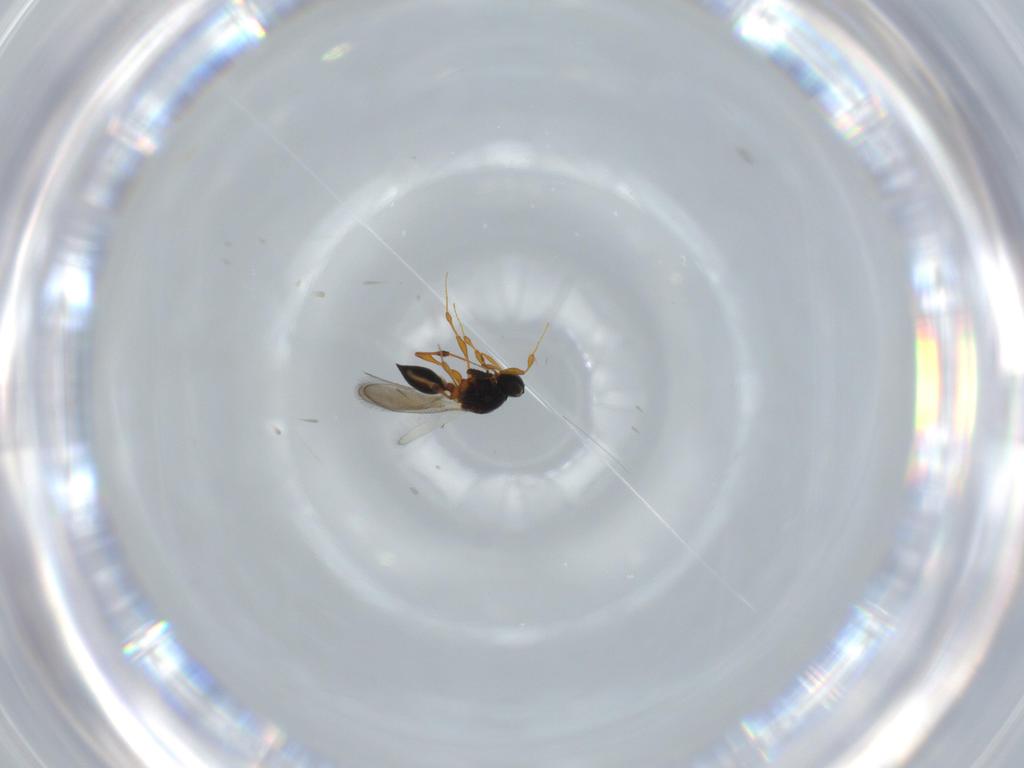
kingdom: Animalia
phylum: Arthropoda
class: Insecta
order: Hymenoptera
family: Platygastridae
